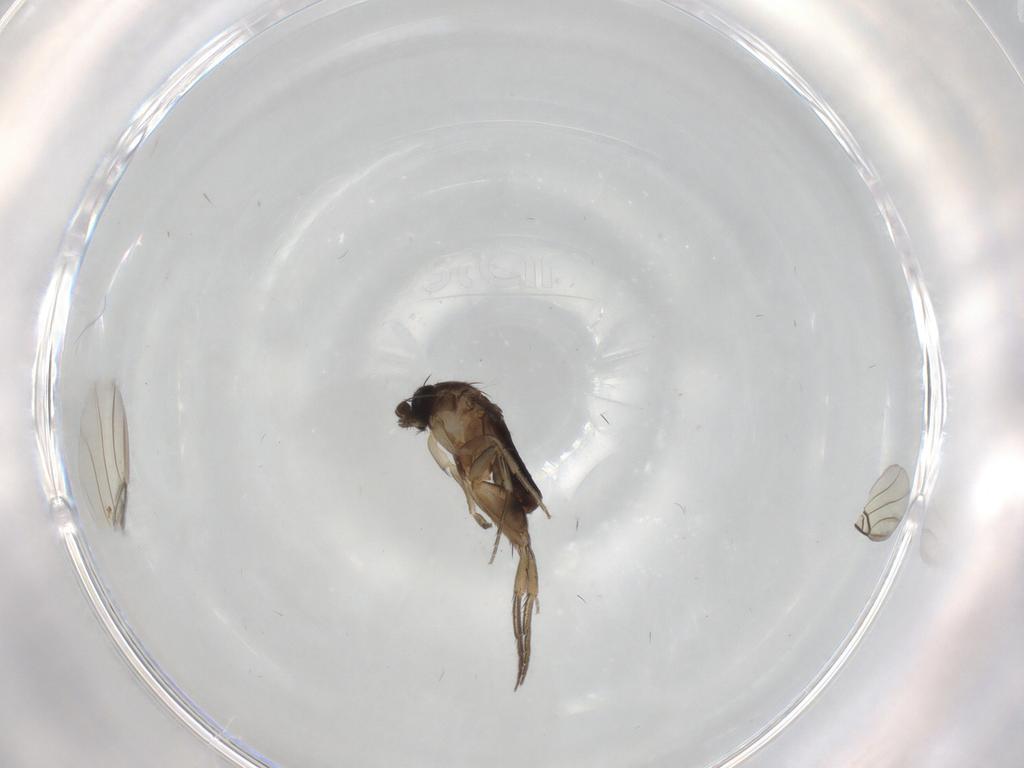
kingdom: Animalia
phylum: Arthropoda
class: Insecta
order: Diptera
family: Phoridae
